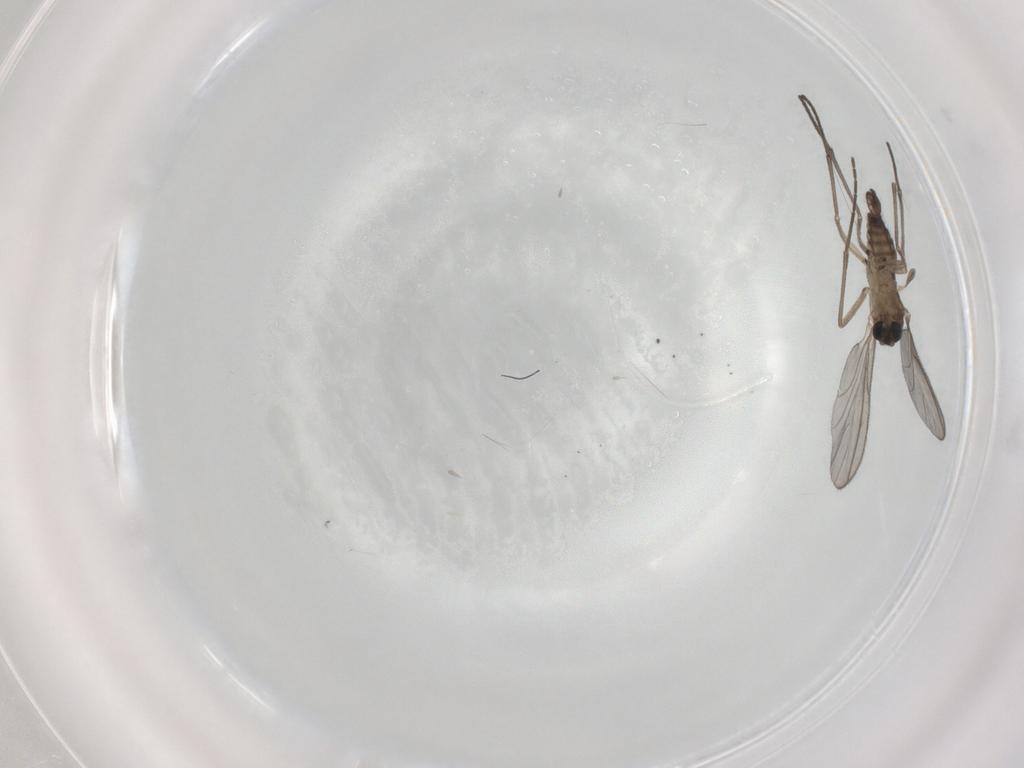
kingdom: Animalia
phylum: Arthropoda
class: Insecta
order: Diptera
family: Sciaridae
